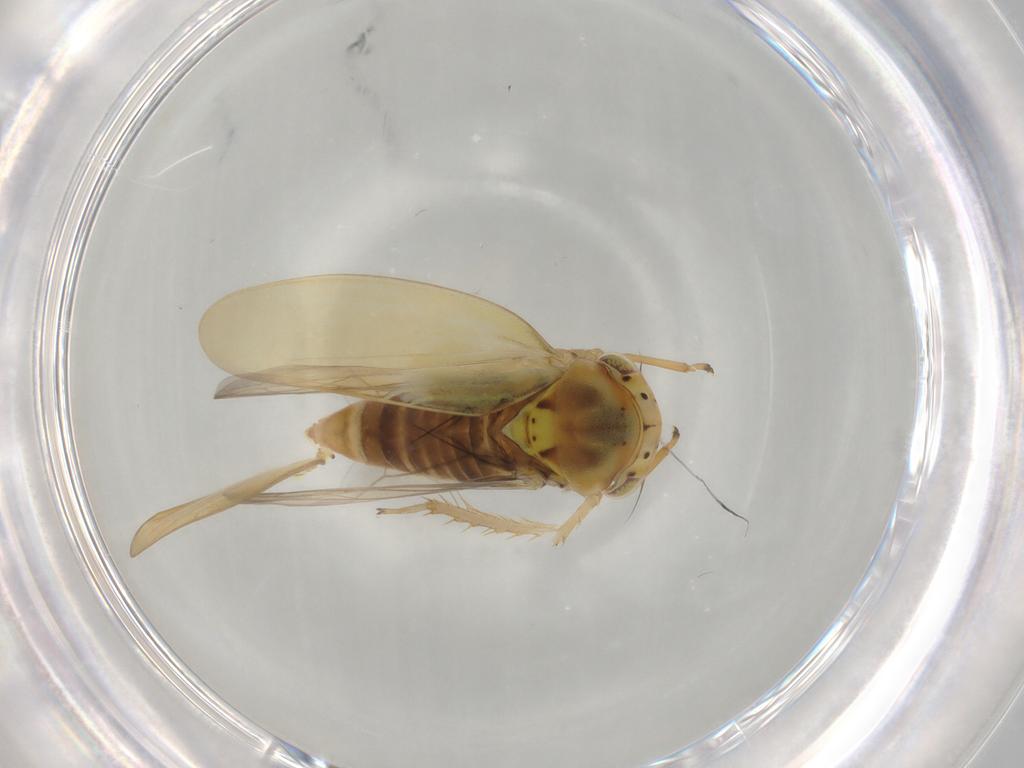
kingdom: Animalia
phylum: Arthropoda
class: Insecta
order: Hemiptera
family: Cicadellidae
